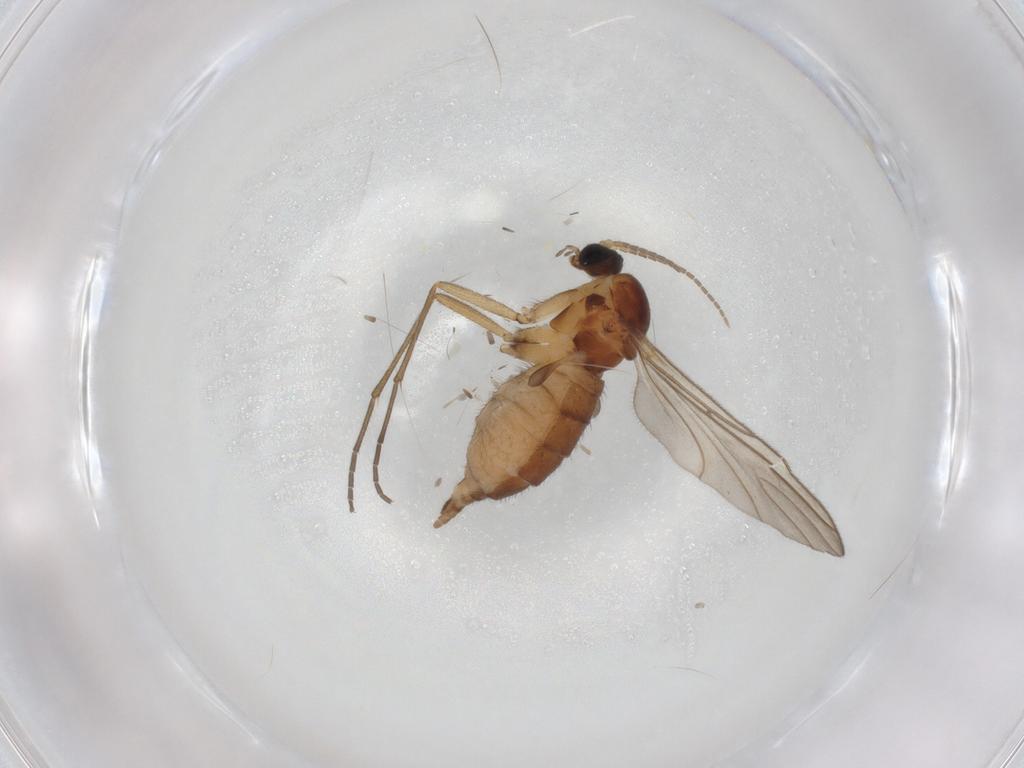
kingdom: Animalia
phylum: Arthropoda
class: Insecta
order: Diptera
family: Sciaridae
